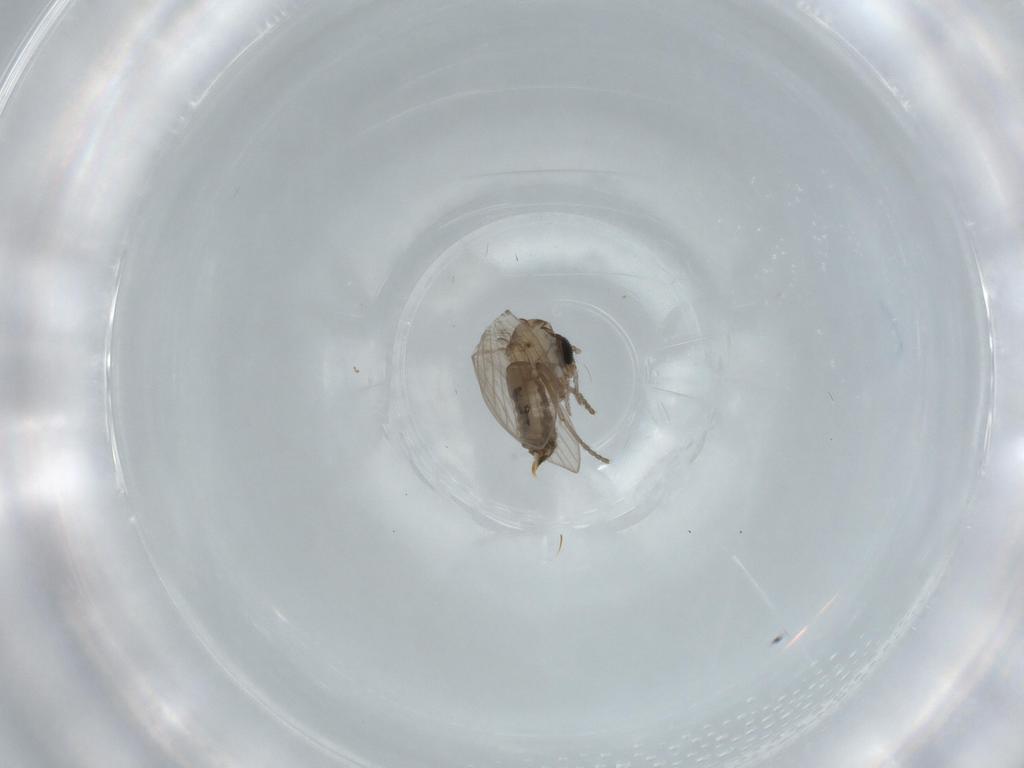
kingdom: Animalia
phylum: Arthropoda
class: Insecta
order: Diptera
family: Psychodidae
